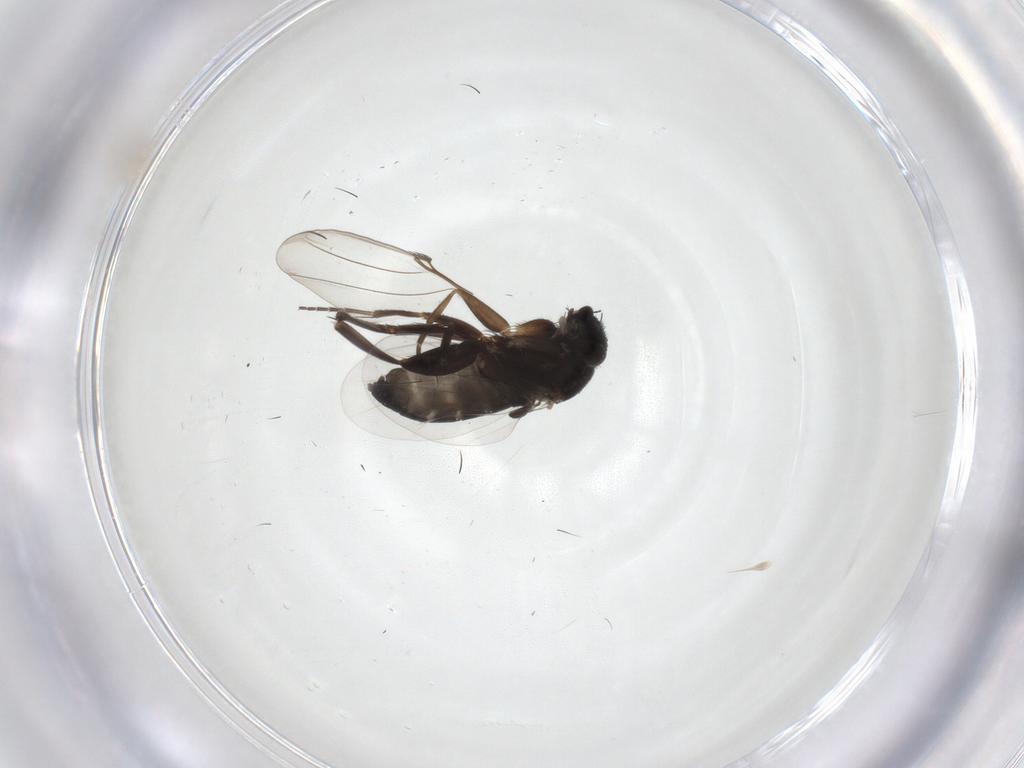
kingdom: Animalia
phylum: Arthropoda
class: Insecta
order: Diptera
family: Phoridae
